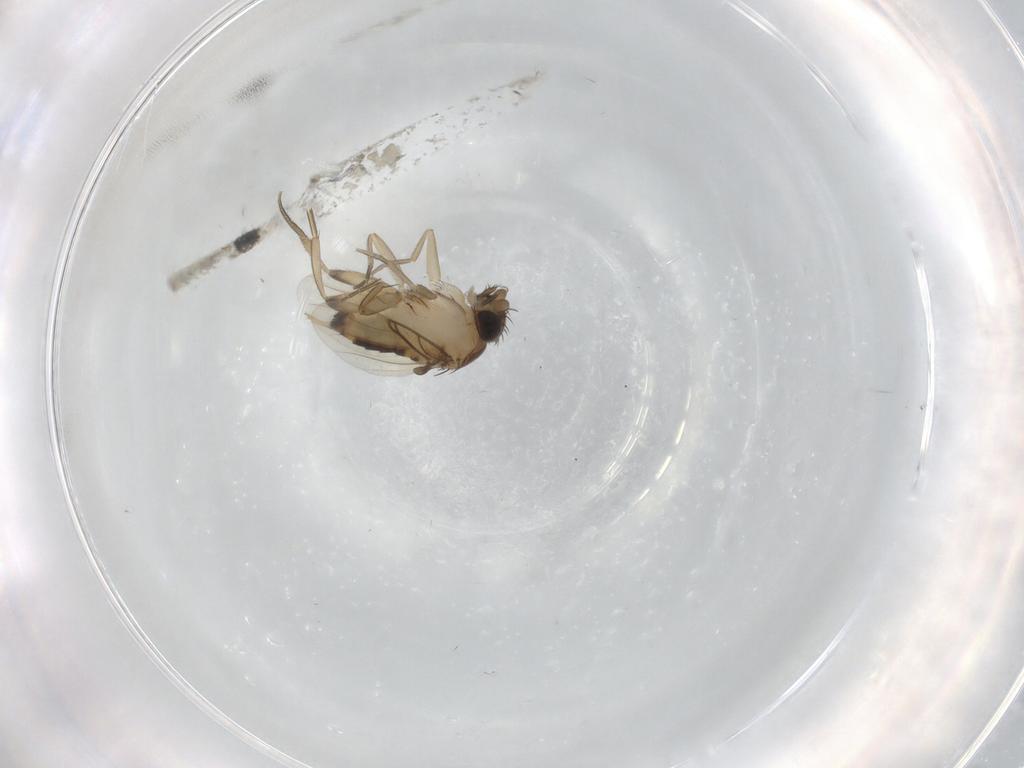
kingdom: Animalia
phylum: Arthropoda
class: Insecta
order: Diptera
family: Phoridae
